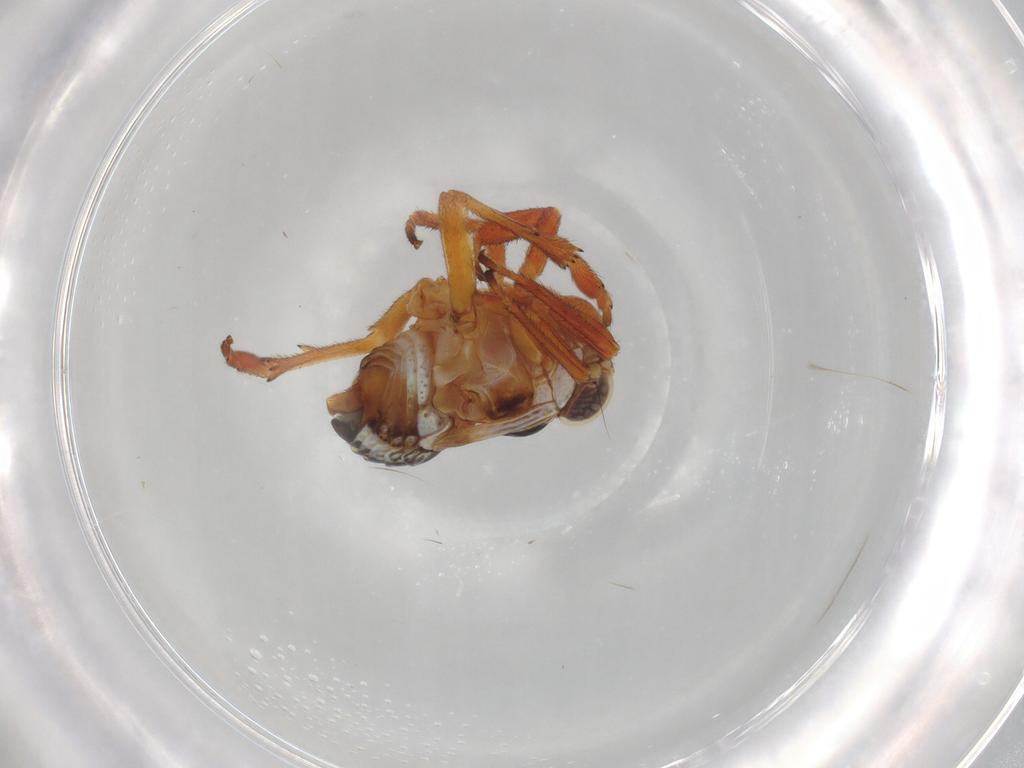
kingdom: Animalia
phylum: Arthropoda
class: Insecta
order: Hemiptera
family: Caliscelidae
